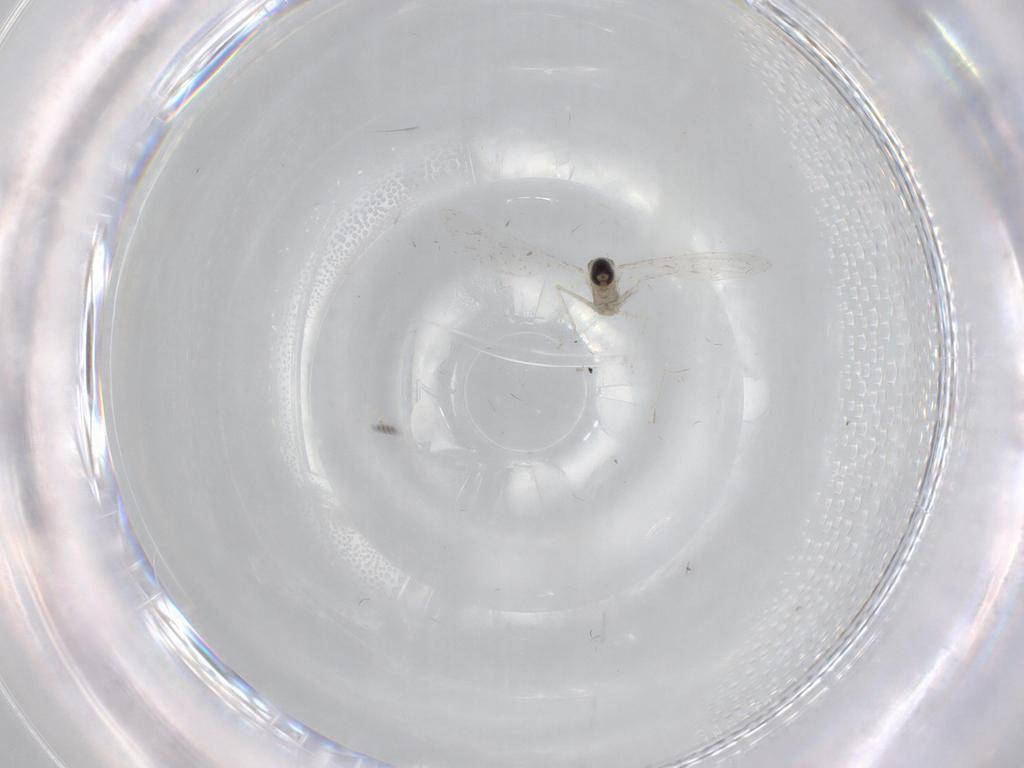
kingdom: Animalia
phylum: Arthropoda
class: Insecta
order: Diptera
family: Cecidomyiidae
